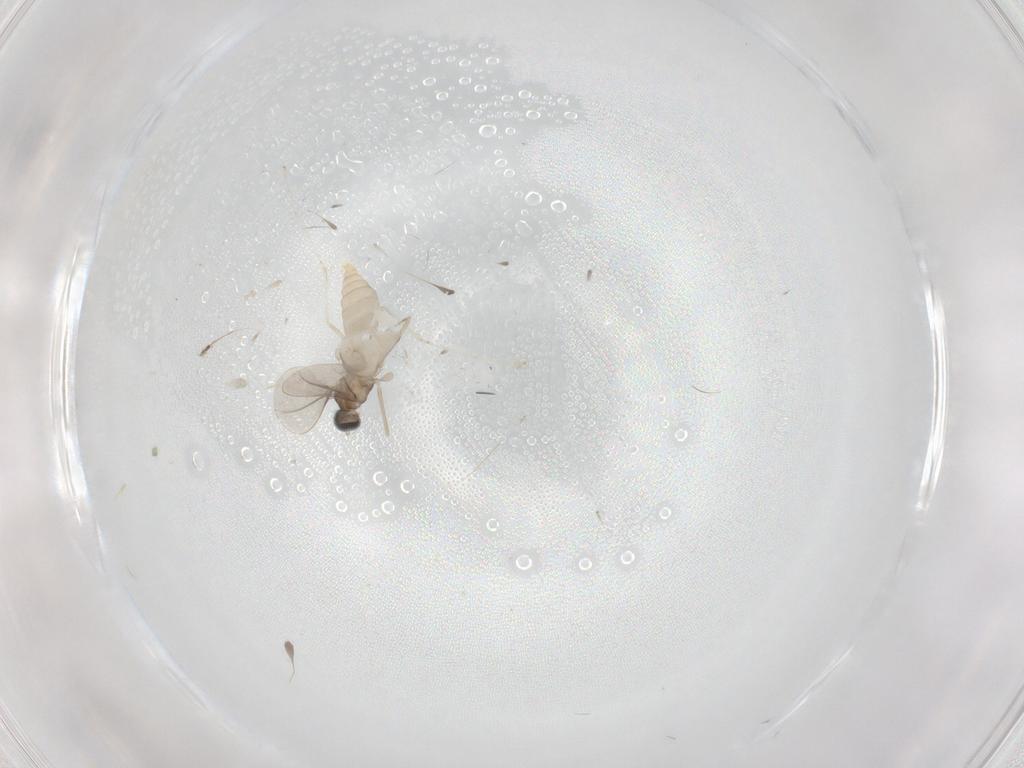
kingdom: Animalia
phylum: Arthropoda
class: Insecta
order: Diptera
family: Cecidomyiidae
